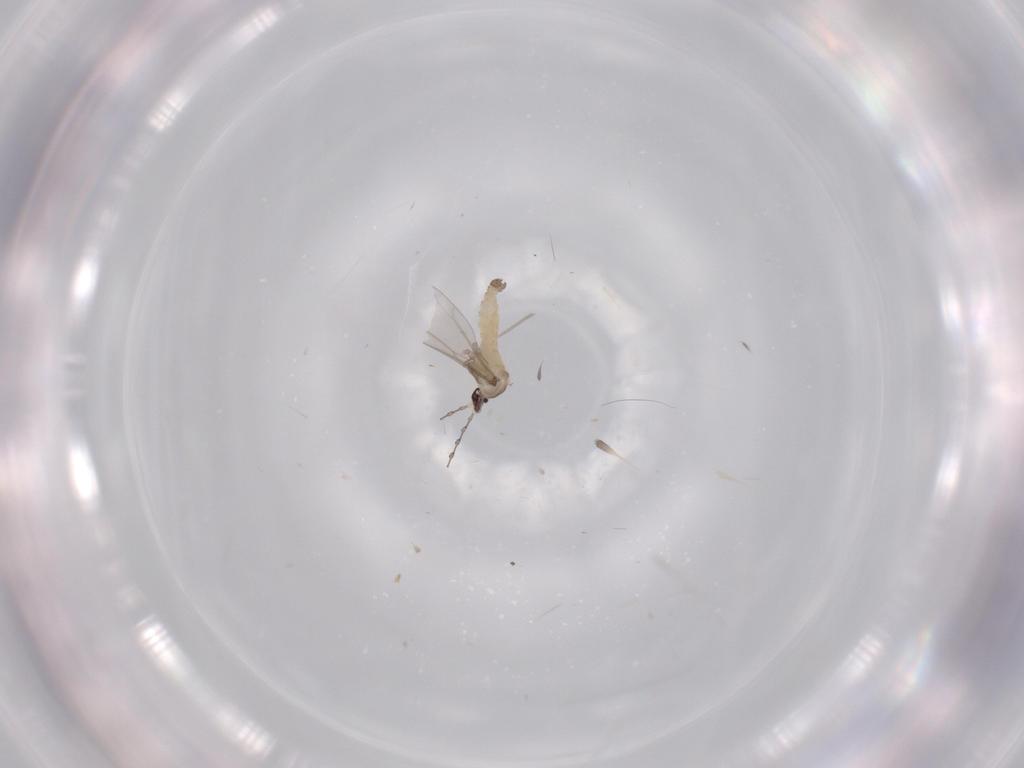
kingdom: Animalia
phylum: Arthropoda
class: Insecta
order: Diptera
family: Cecidomyiidae
